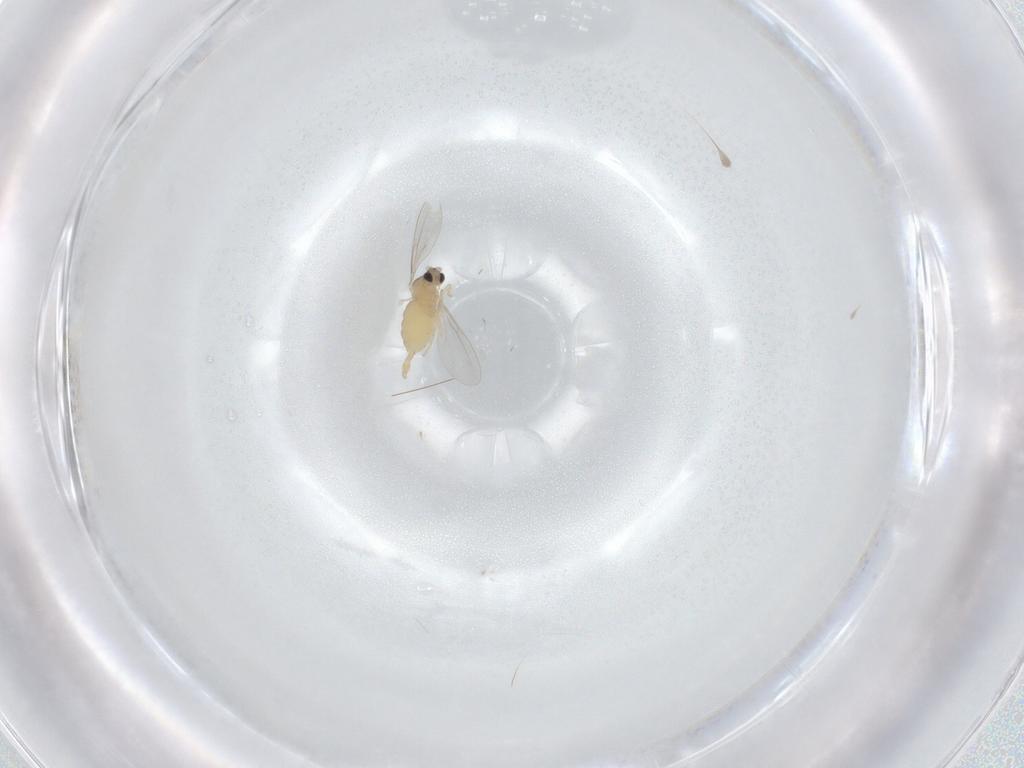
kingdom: Animalia
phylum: Arthropoda
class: Insecta
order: Diptera
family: Cecidomyiidae
